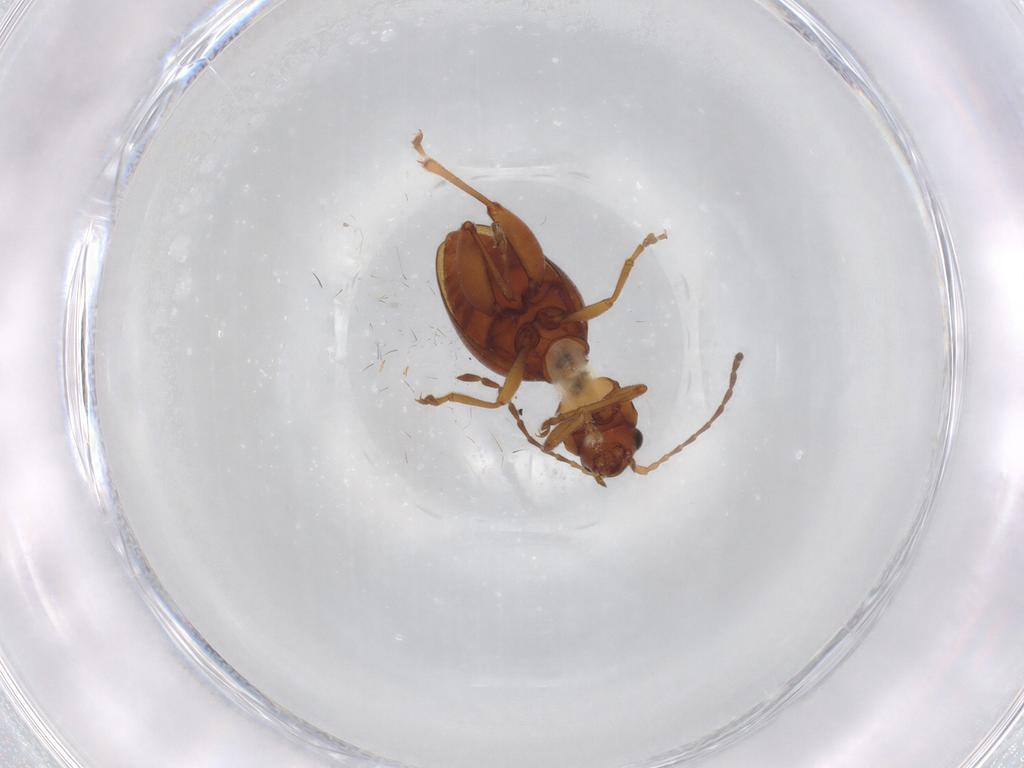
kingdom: Animalia
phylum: Arthropoda
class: Insecta
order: Coleoptera
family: Chrysomelidae
